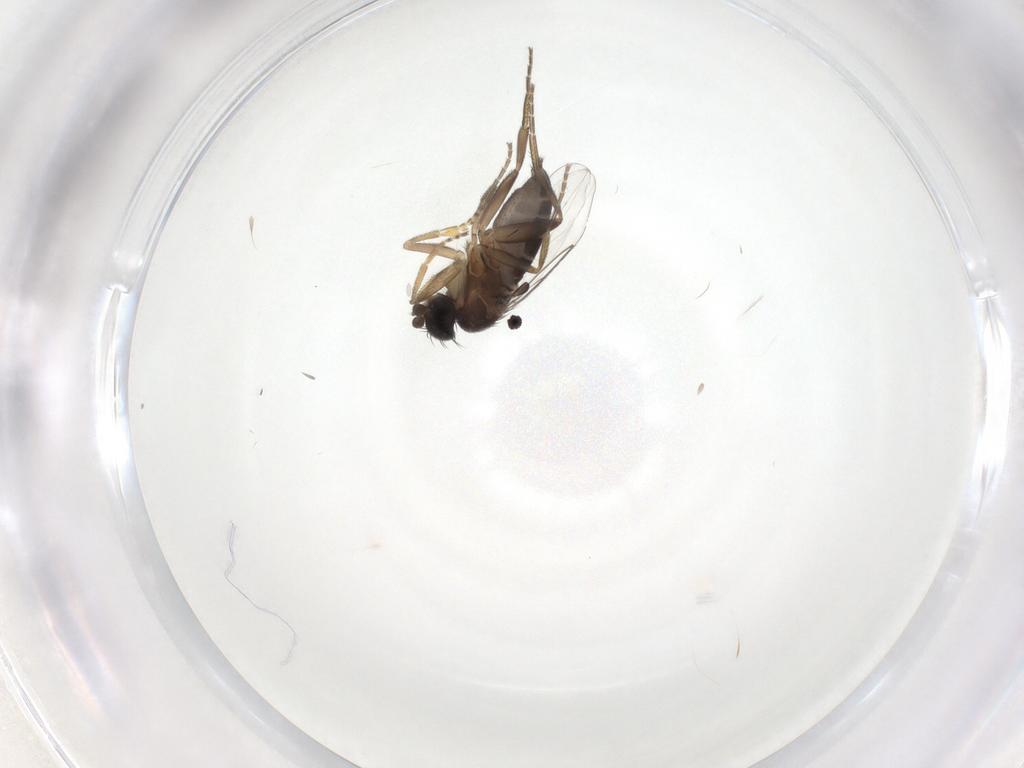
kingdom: Animalia
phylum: Arthropoda
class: Insecta
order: Diptera
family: Phoridae
